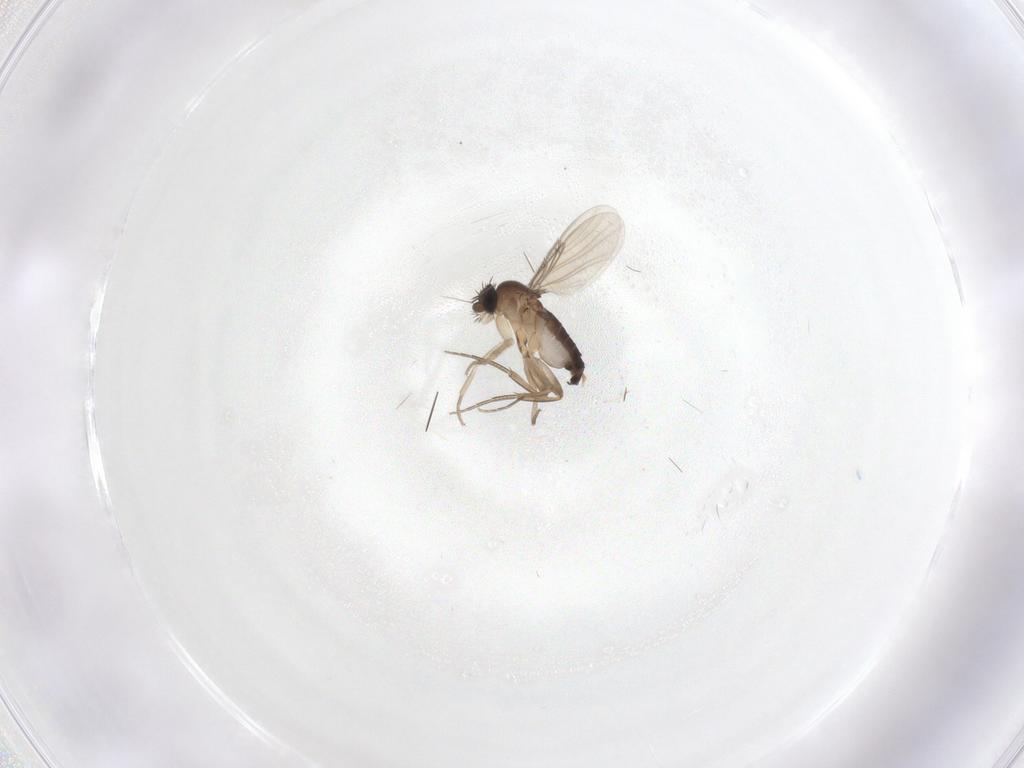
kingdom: Animalia
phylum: Arthropoda
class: Insecta
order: Diptera
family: Phoridae
